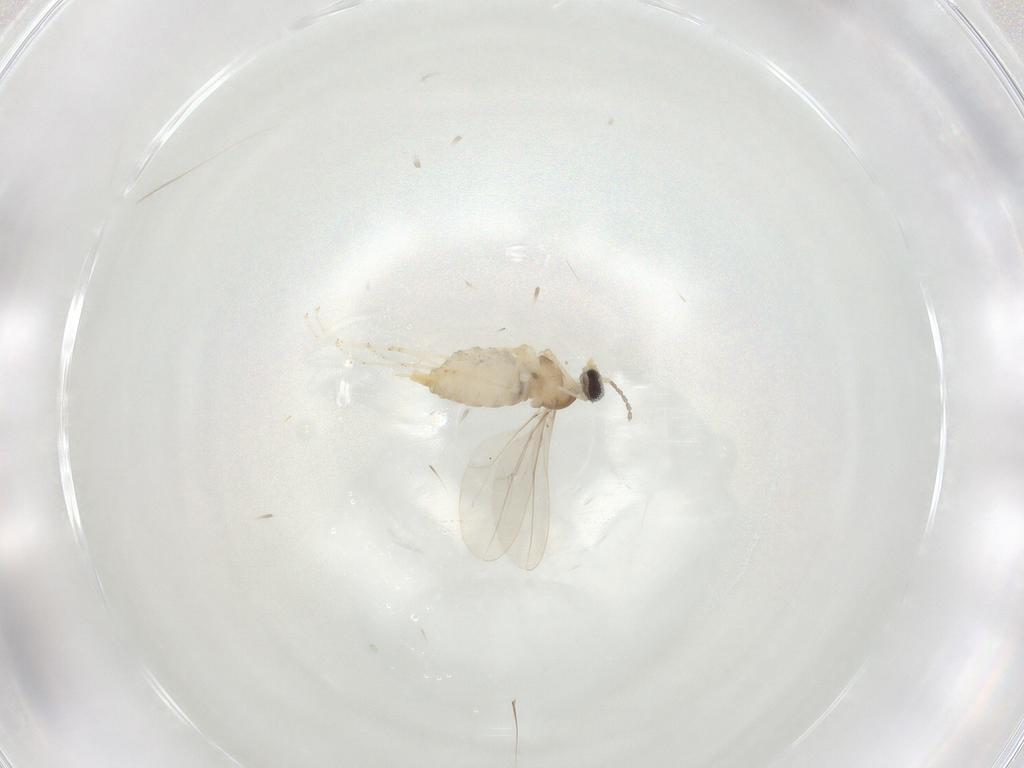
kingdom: Animalia
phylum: Arthropoda
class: Insecta
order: Diptera
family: Cecidomyiidae
